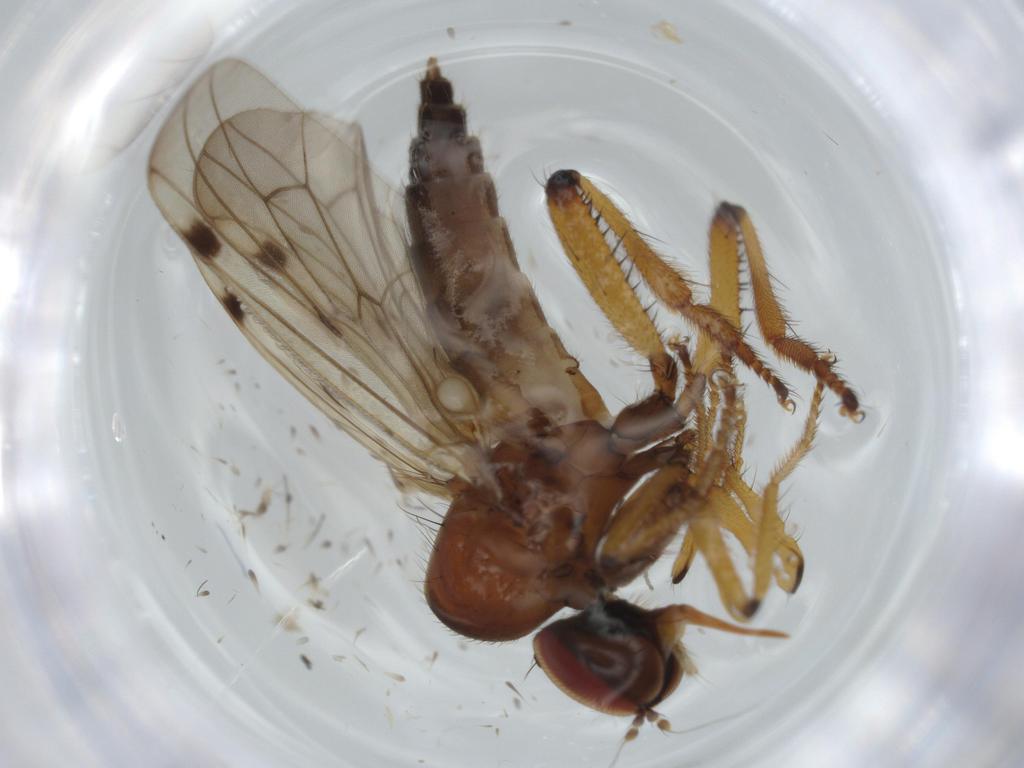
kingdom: Animalia
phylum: Arthropoda
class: Insecta
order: Diptera
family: Hybotidae
